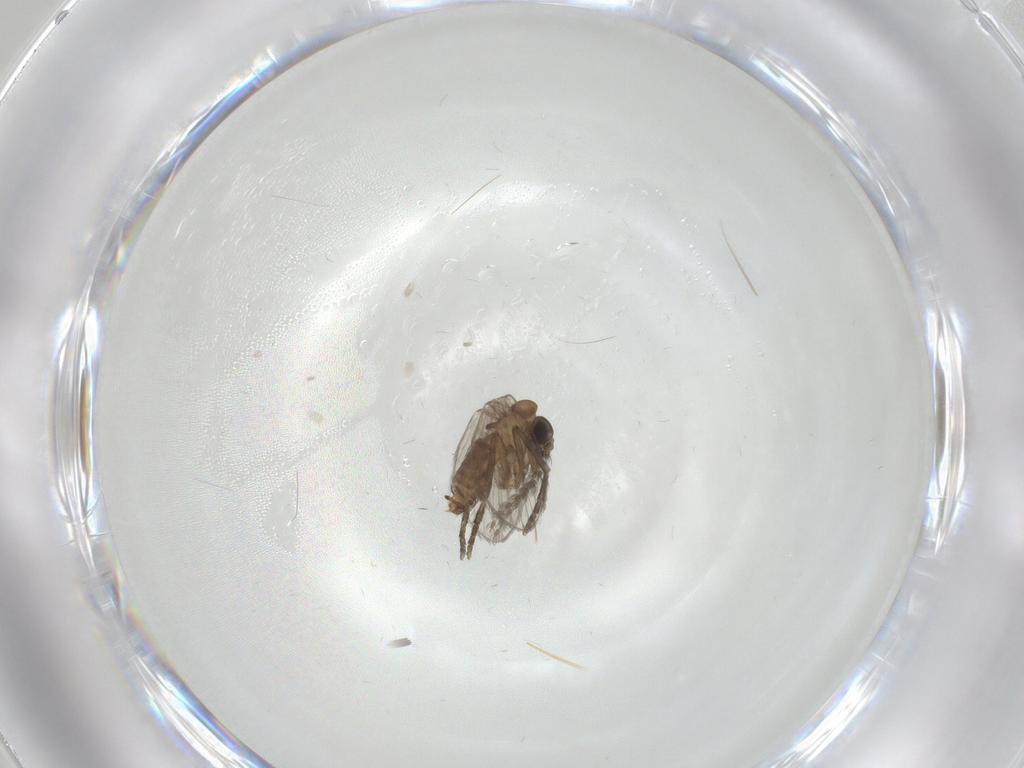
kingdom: Animalia
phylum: Arthropoda
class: Insecta
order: Diptera
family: Psychodidae
